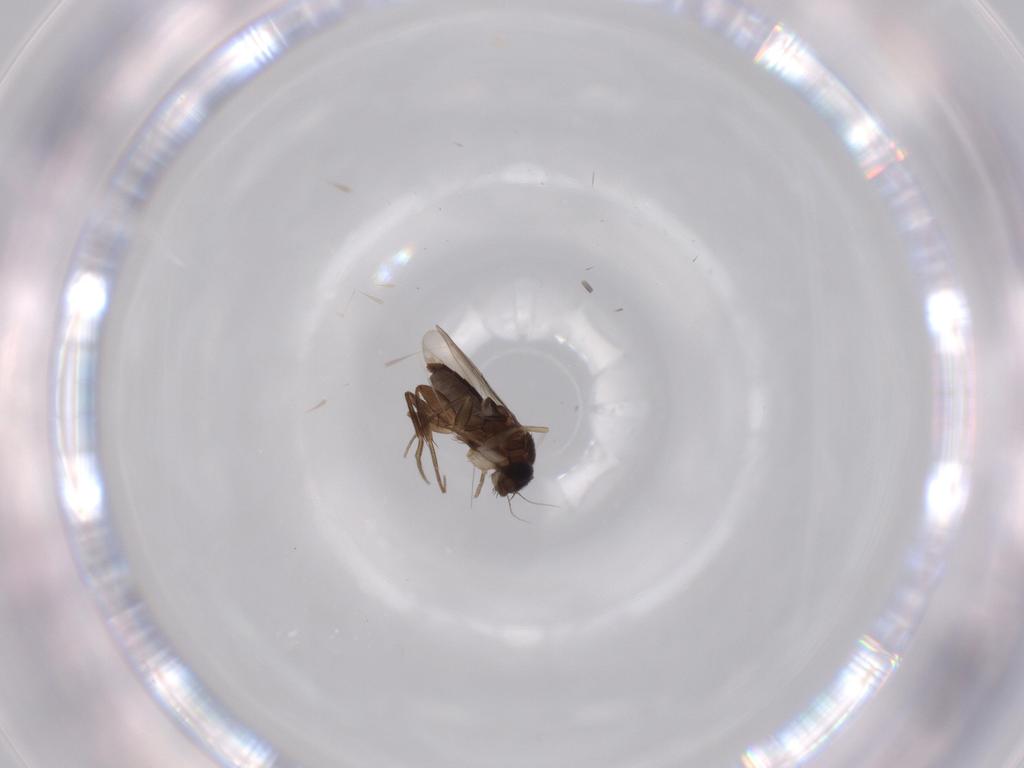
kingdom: Animalia
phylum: Arthropoda
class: Insecta
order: Diptera
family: Phoridae
